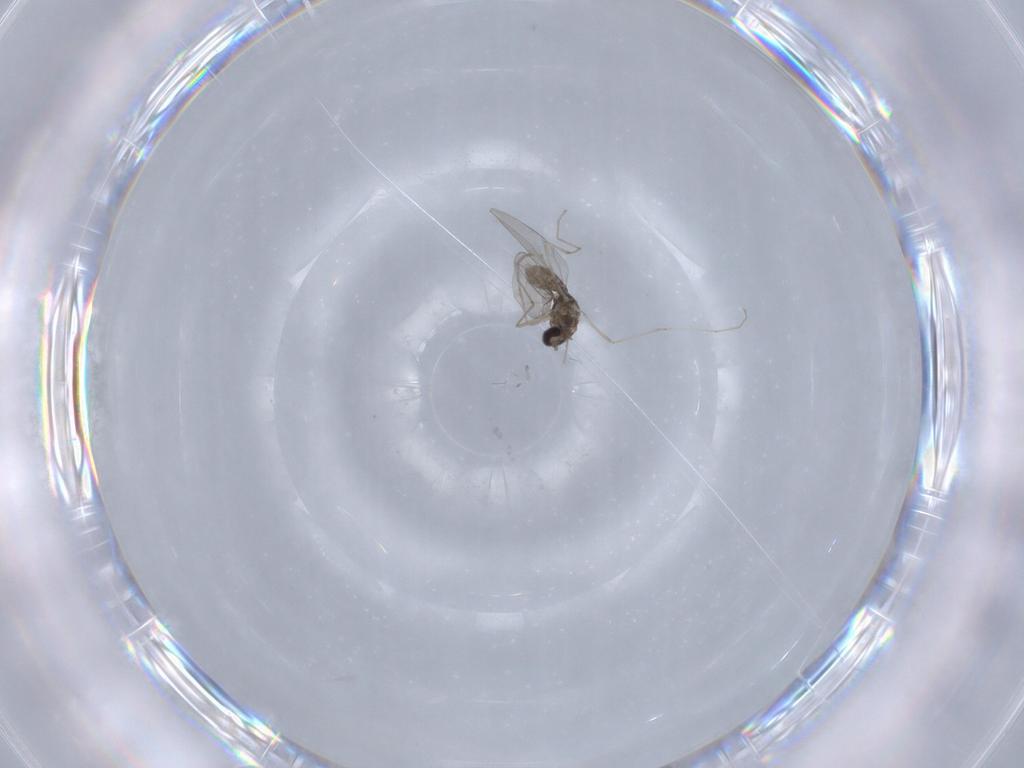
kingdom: Animalia
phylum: Arthropoda
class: Insecta
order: Diptera
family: Cecidomyiidae
